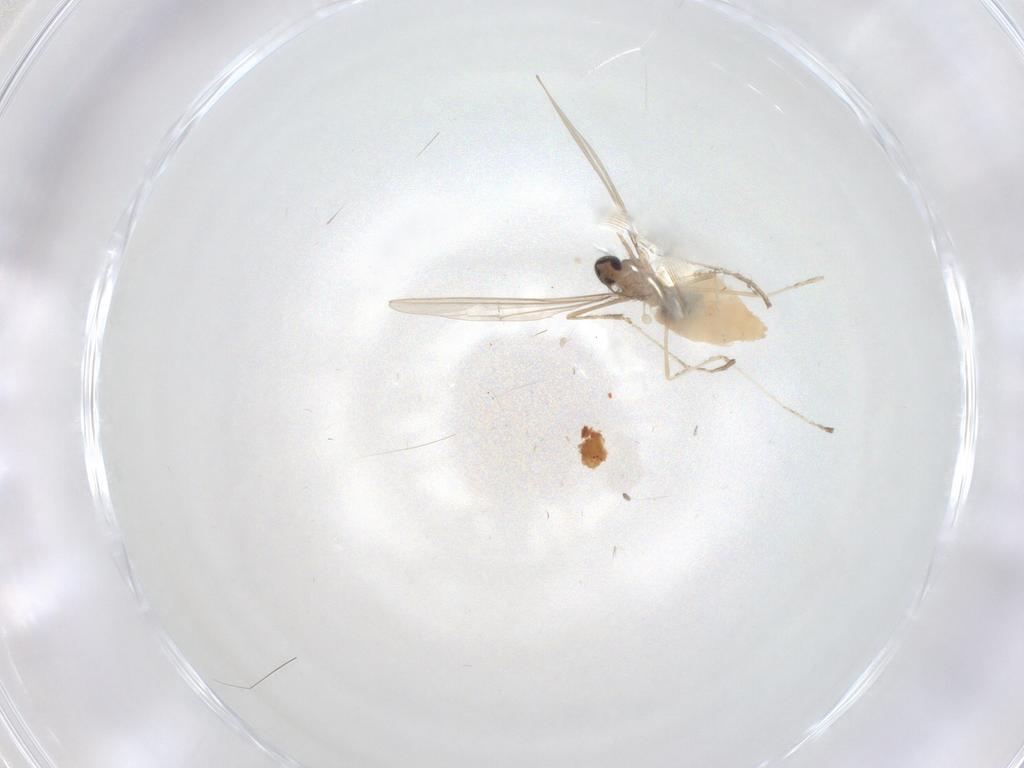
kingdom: Animalia
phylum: Arthropoda
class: Insecta
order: Diptera
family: Cecidomyiidae
